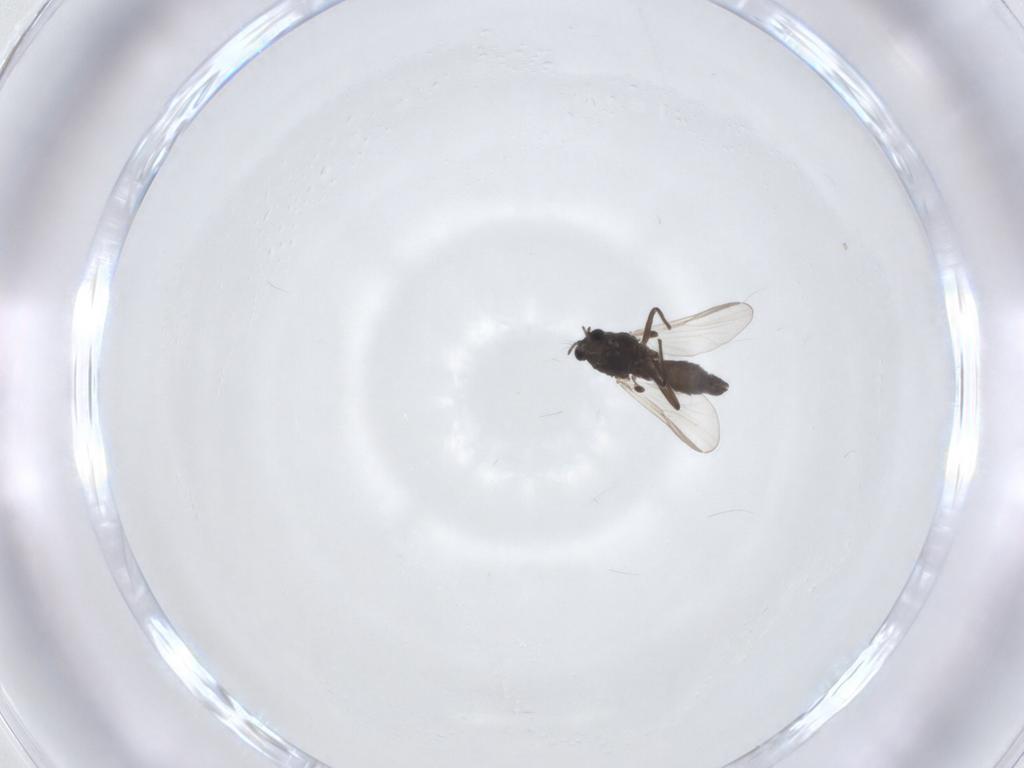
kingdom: Animalia
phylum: Arthropoda
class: Insecta
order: Diptera
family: Chironomidae
